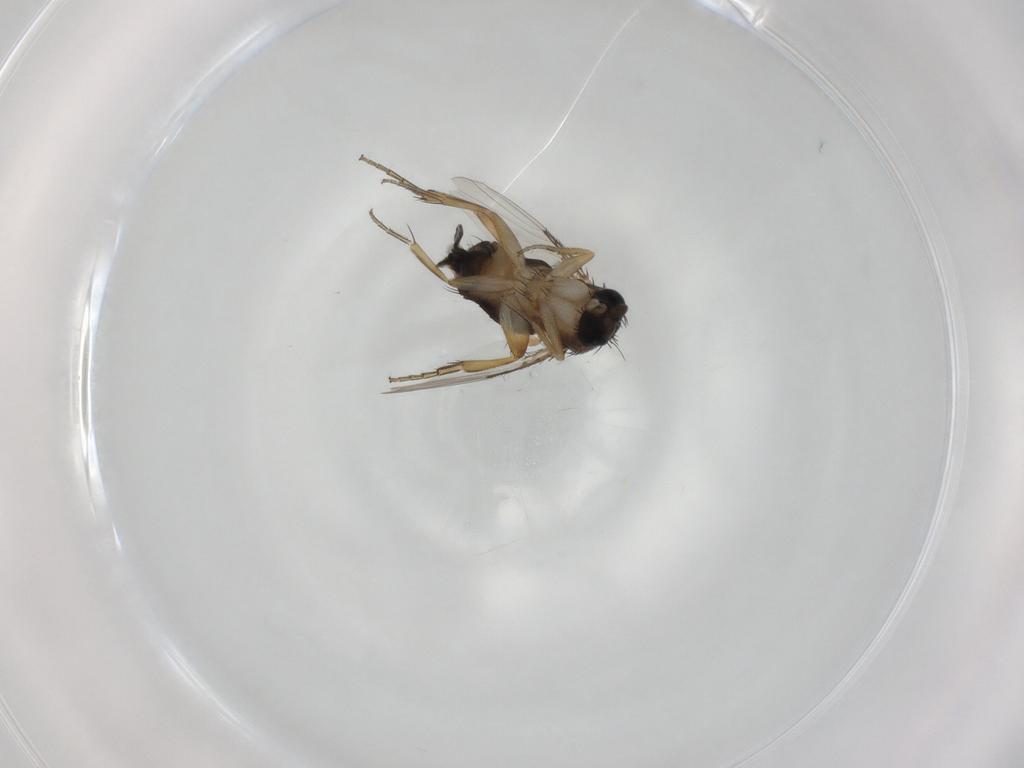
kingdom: Animalia
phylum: Arthropoda
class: Insecta
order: Diptera
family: Phoridae
